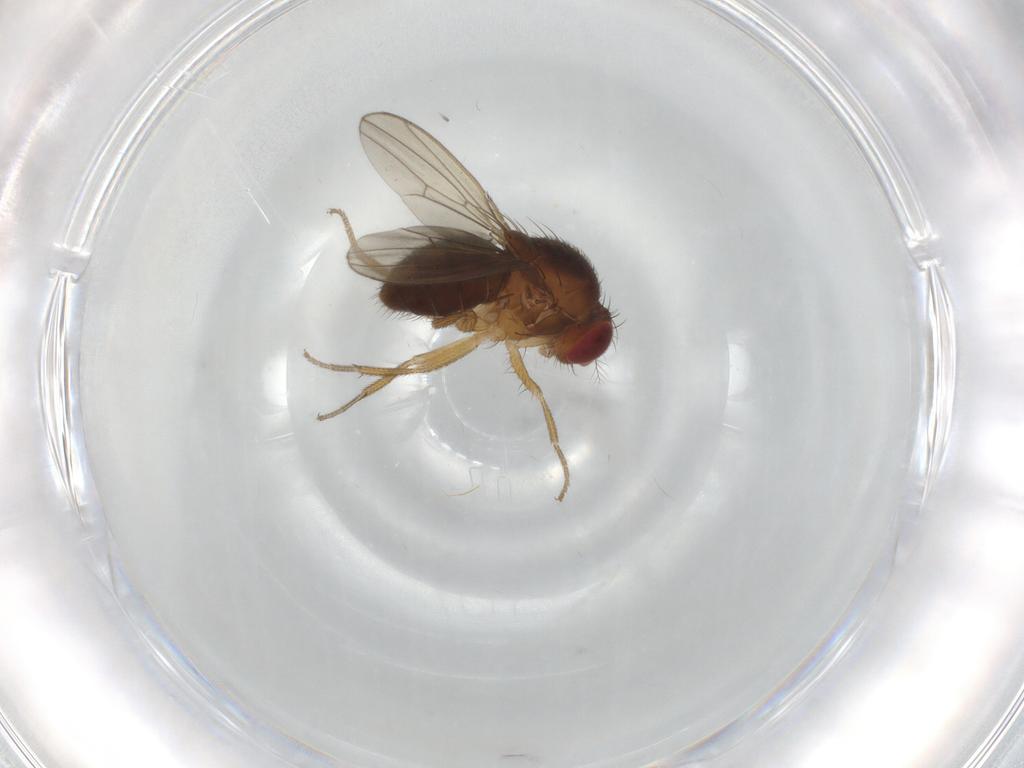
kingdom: Animalia
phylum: Arthropoda
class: Insecta
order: Diptera
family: Drosophilidae
